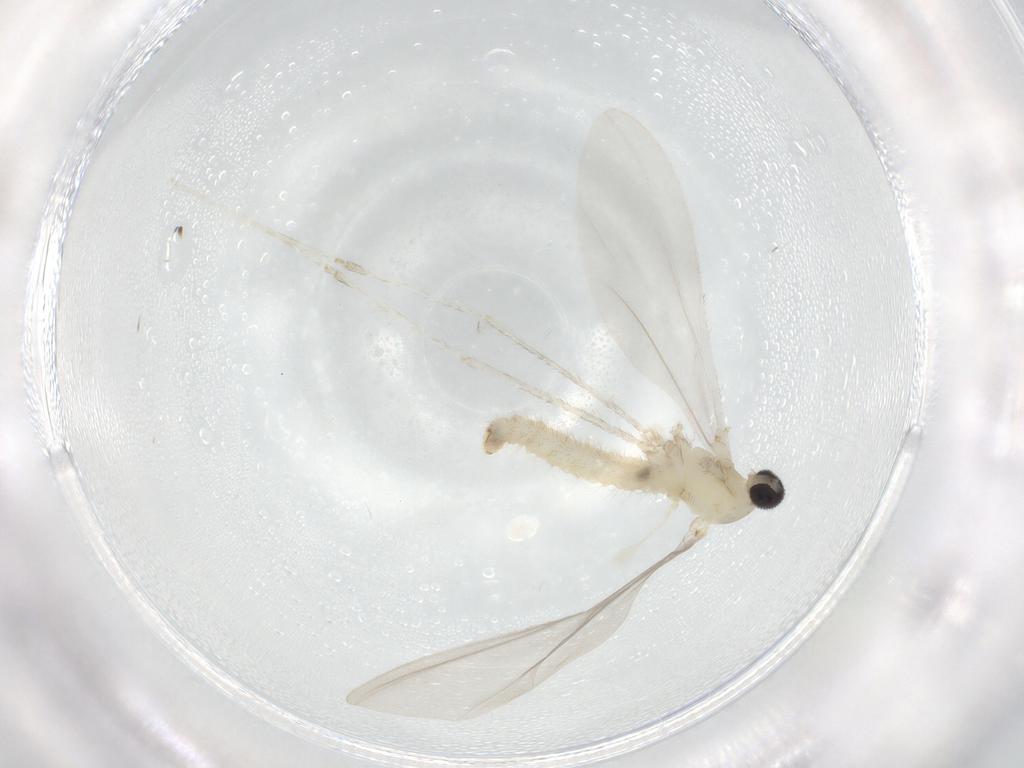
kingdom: Animalia
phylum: Arthropoda
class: Insecta
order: Diptera
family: Cecidomyiidae
